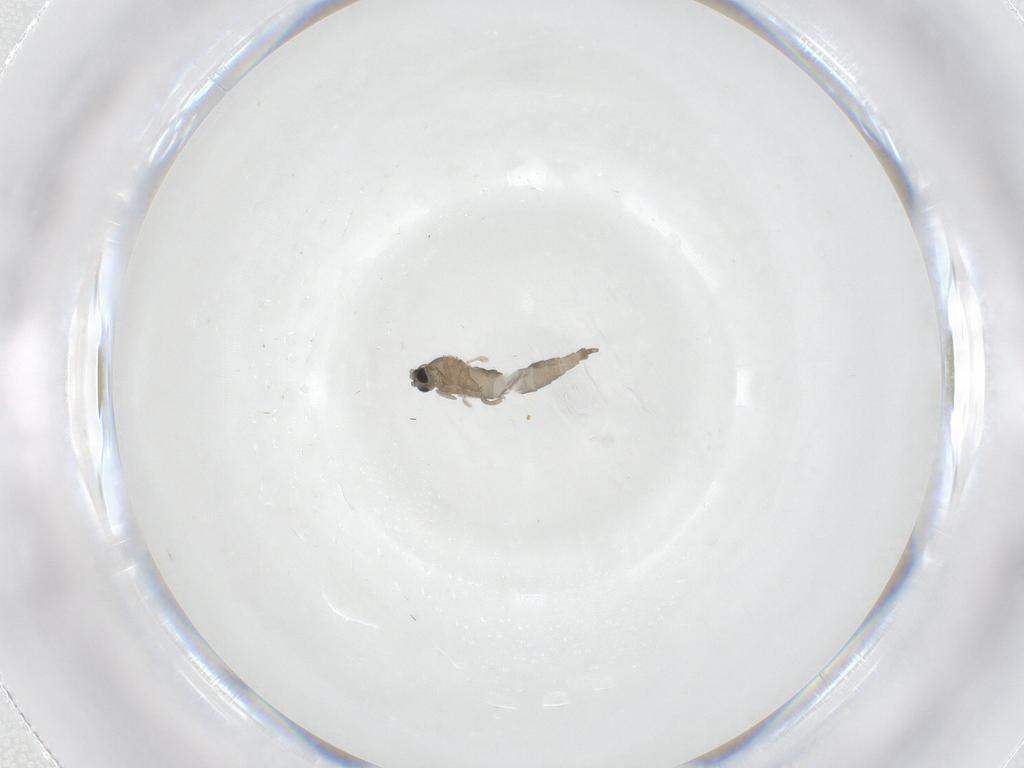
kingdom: Animalia
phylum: Arthropoda
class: Insecta
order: Diptera
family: Cecidomyiidae
